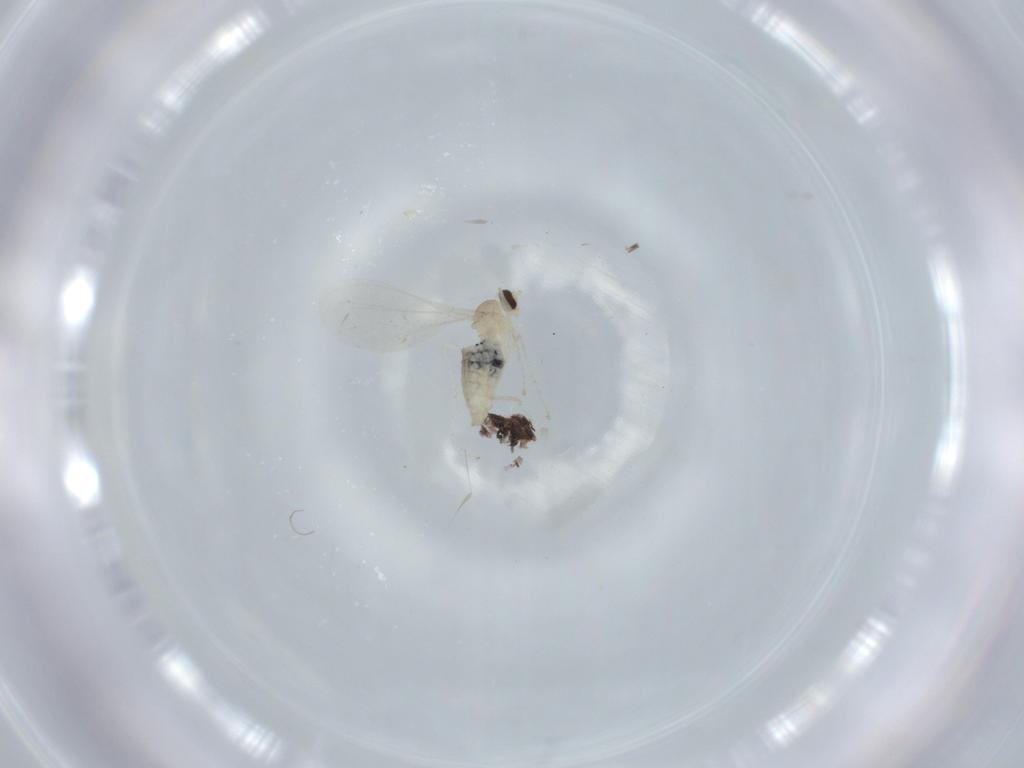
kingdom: Animalia
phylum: Arthropoda
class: Insecta
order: Diptera
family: Cecidomyiidae
